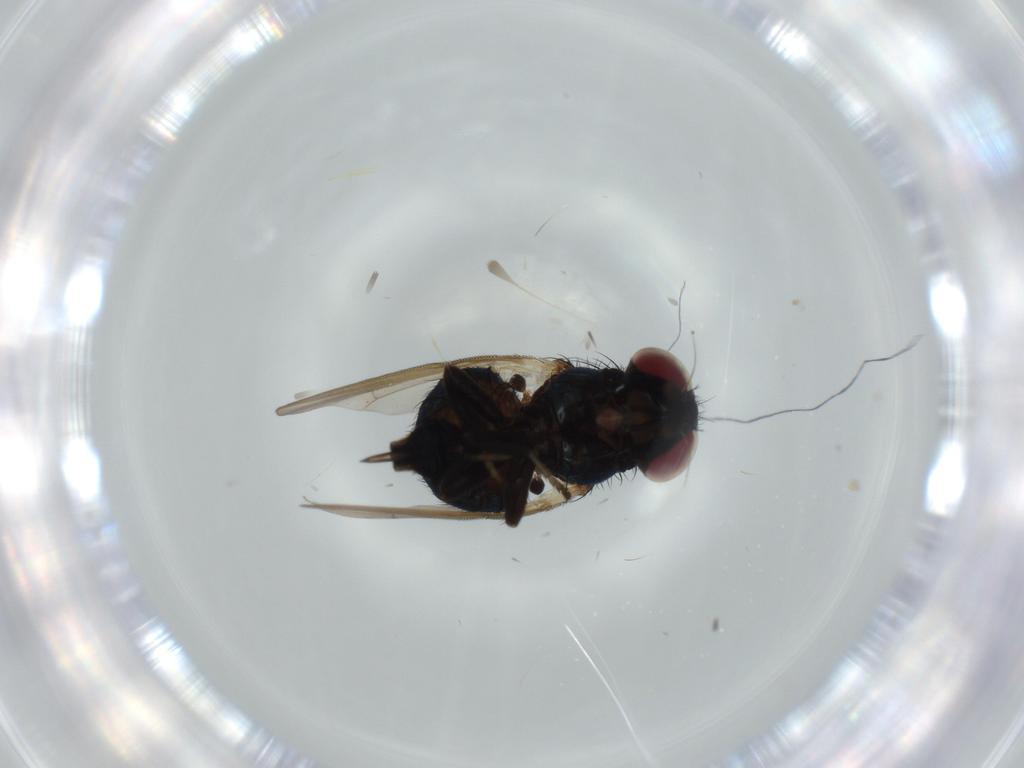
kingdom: Animalia
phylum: Arthropoda
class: Insecta
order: Diptera
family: Lonchaeidae
